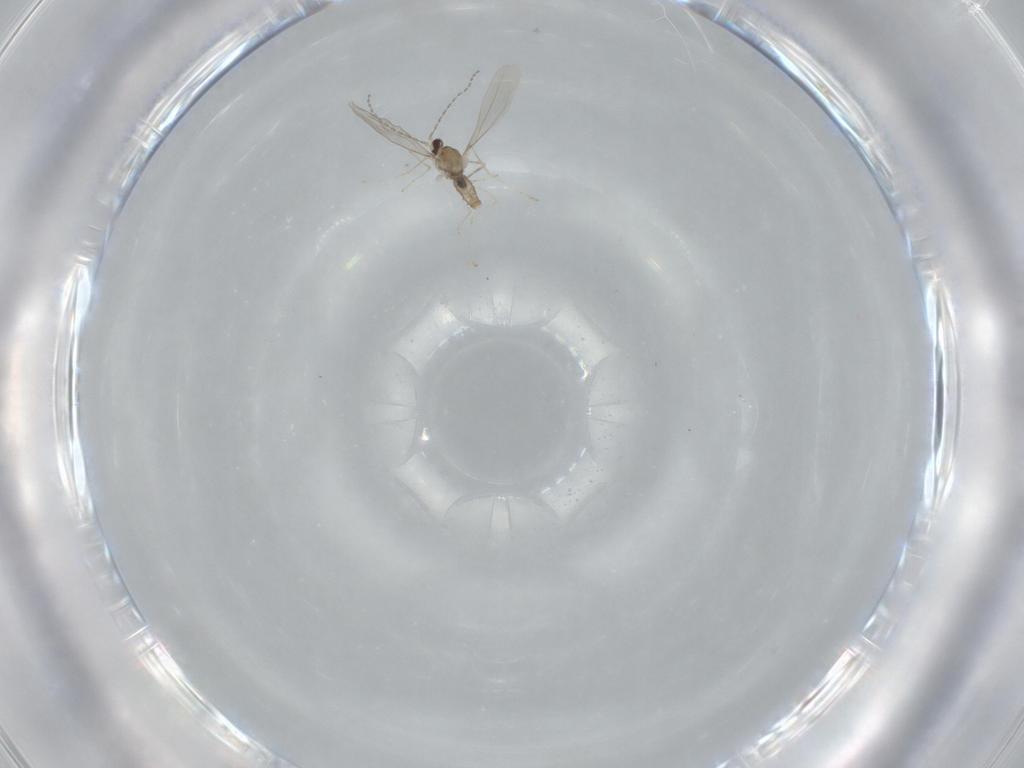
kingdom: Animalia
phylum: Arthropoda
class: Insecta
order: Diptera
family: Cecidomyiidae
